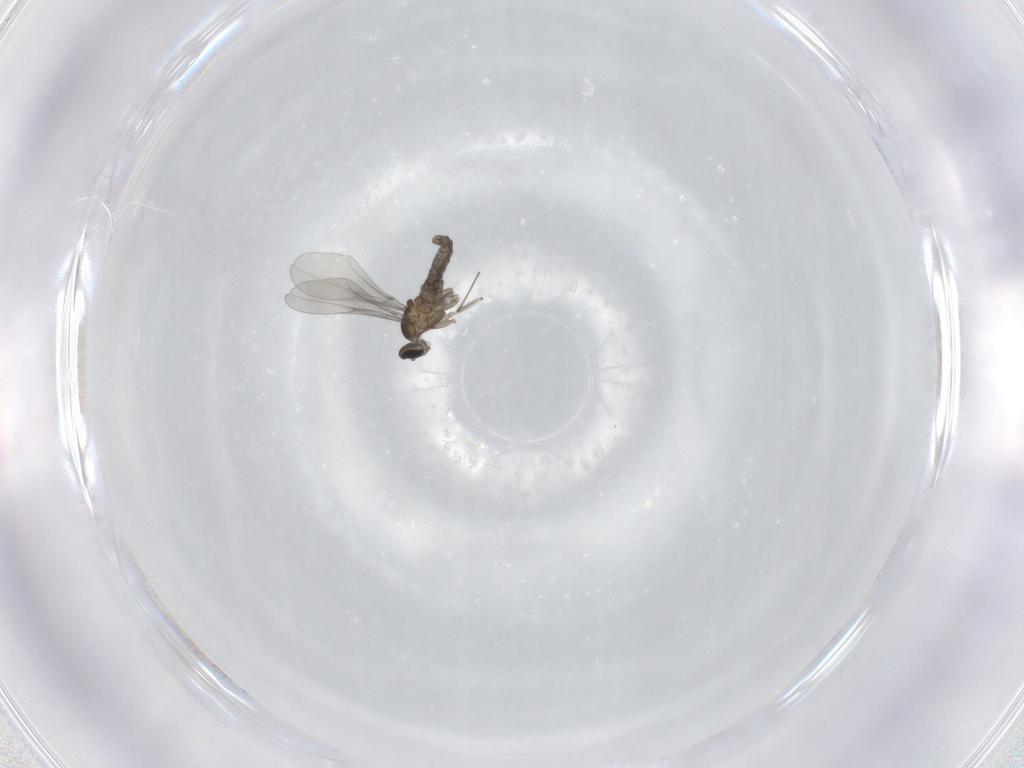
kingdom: Animalia
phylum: Arthropoda
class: Insecta
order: Diptera
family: Cecidomyiidae
